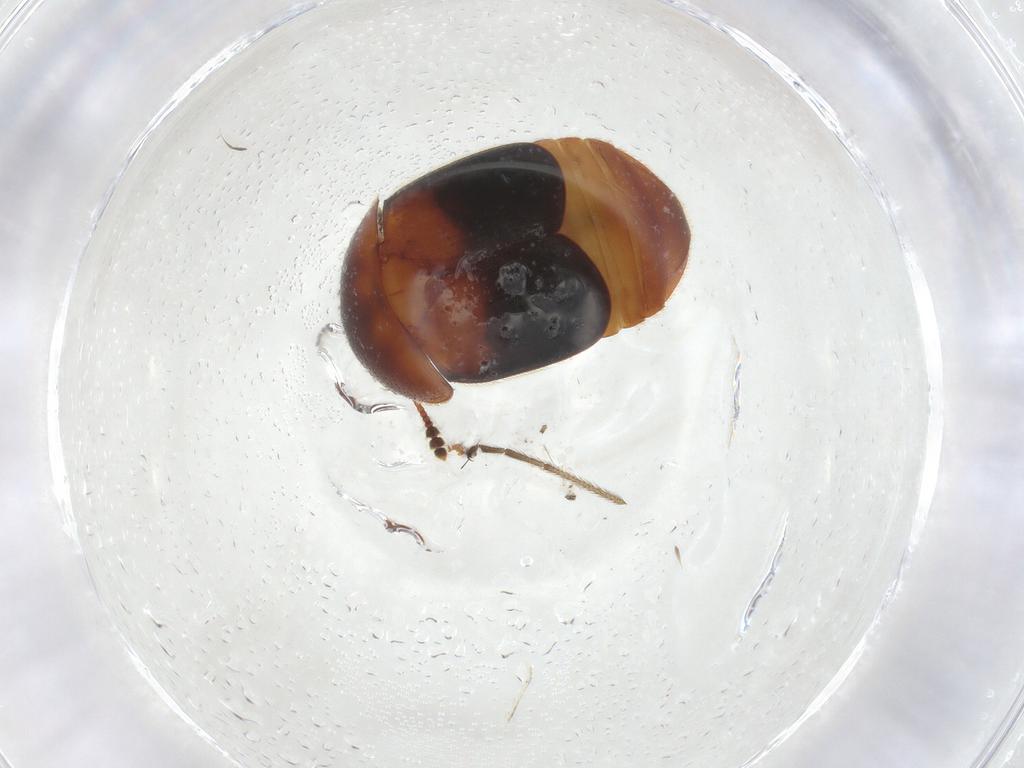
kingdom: Animalia
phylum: Arthropoda
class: Insecta
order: Coleoptera
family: Nitidulidae
